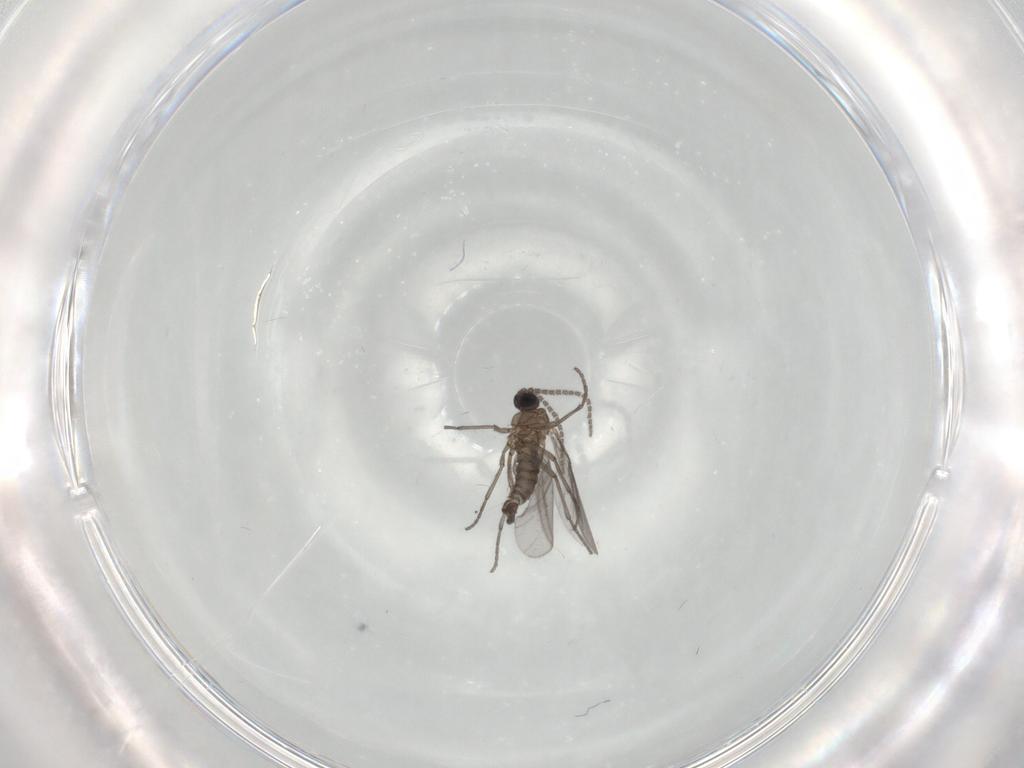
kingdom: Animalia
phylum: Arthropoda
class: Insecta
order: Diptera
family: Sciaridae
